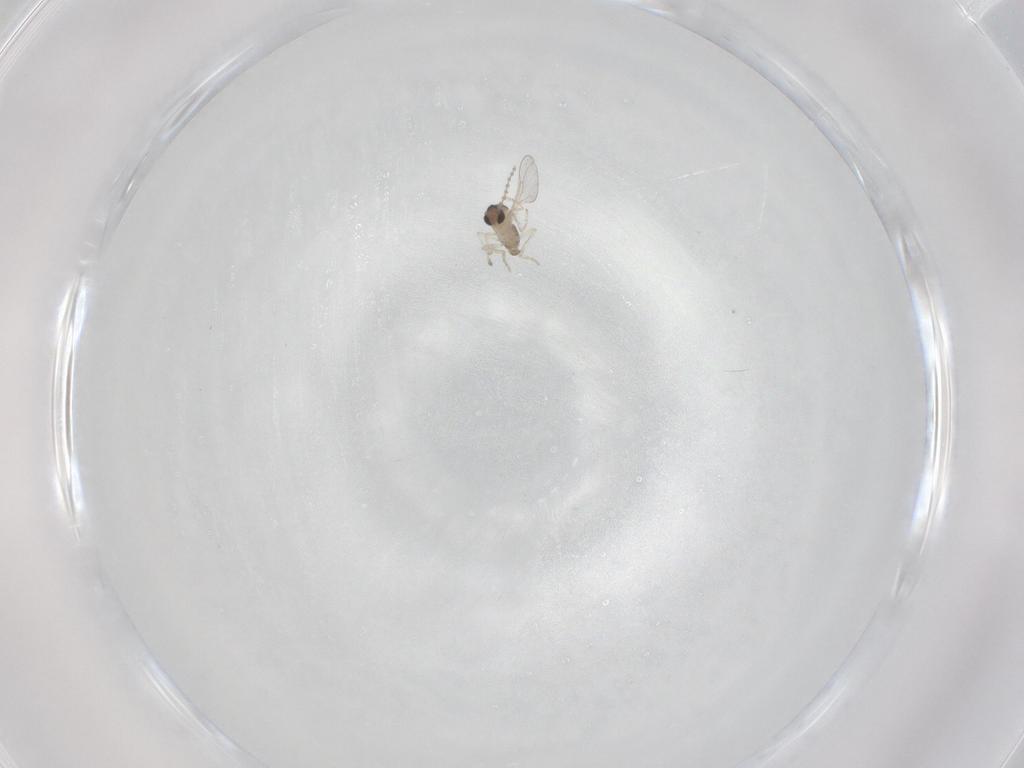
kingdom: Animalia
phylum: Arthropoda
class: Insecta
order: Diptera
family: Cecidomyiidae
